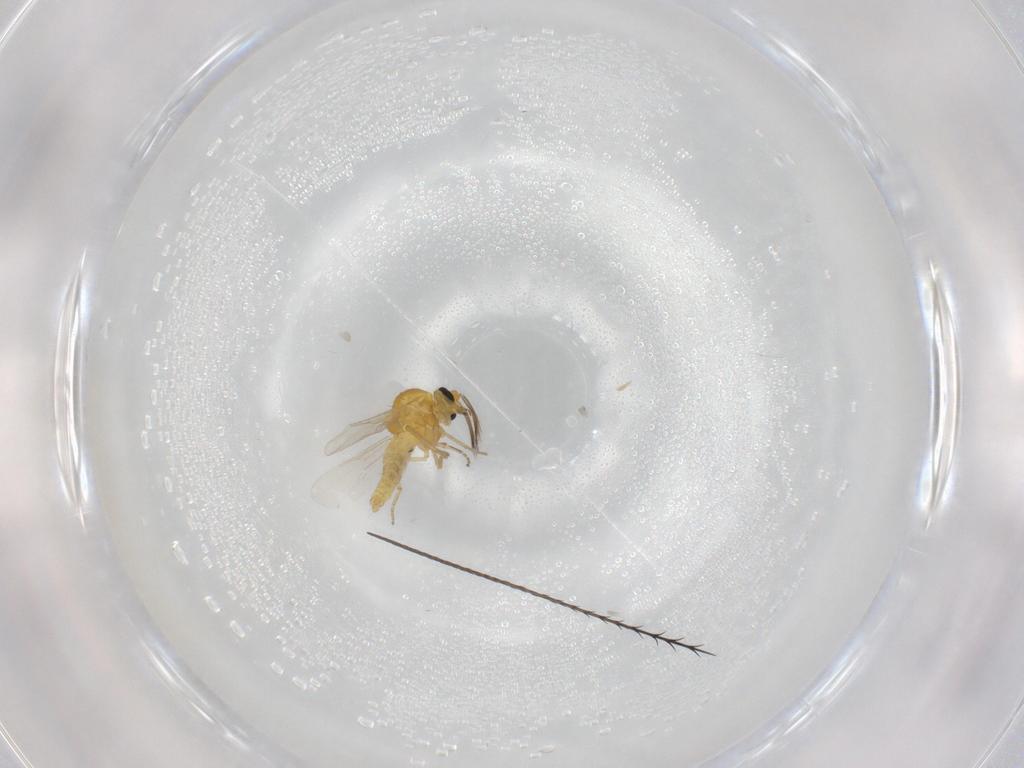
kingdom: Animalia
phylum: Arthropoda
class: Insecta
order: Diptera
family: Ceratopogonidae
